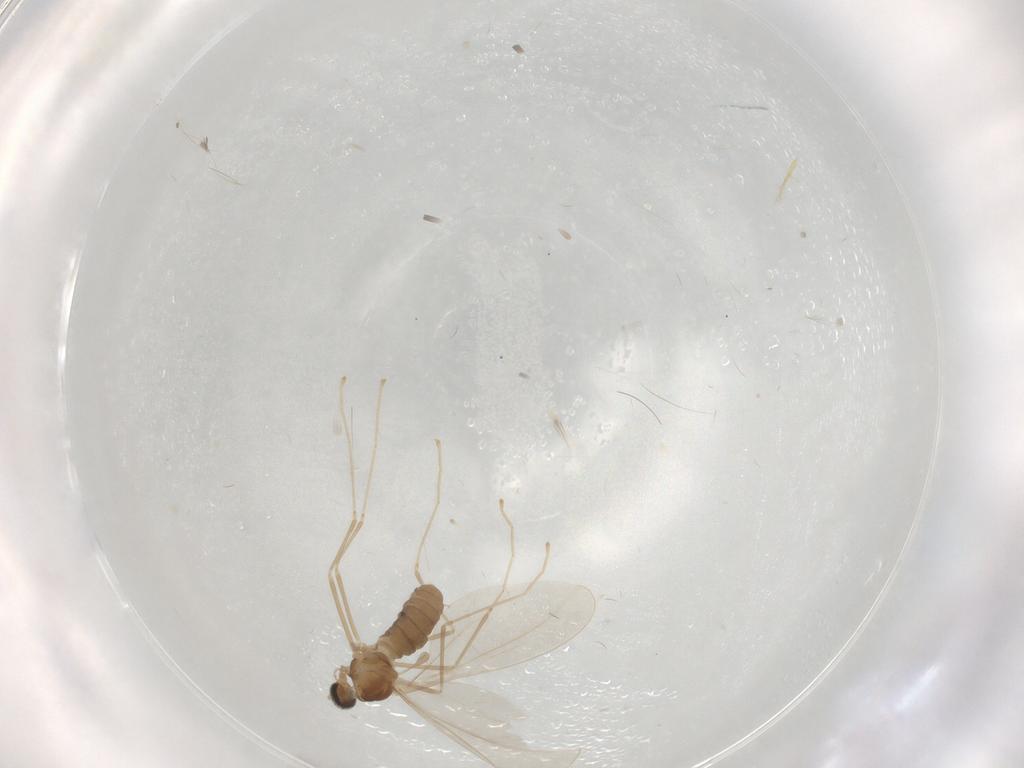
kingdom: Animalia
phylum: Arthropoda
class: Insecta
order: Diptera
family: Cecidomyiidae
